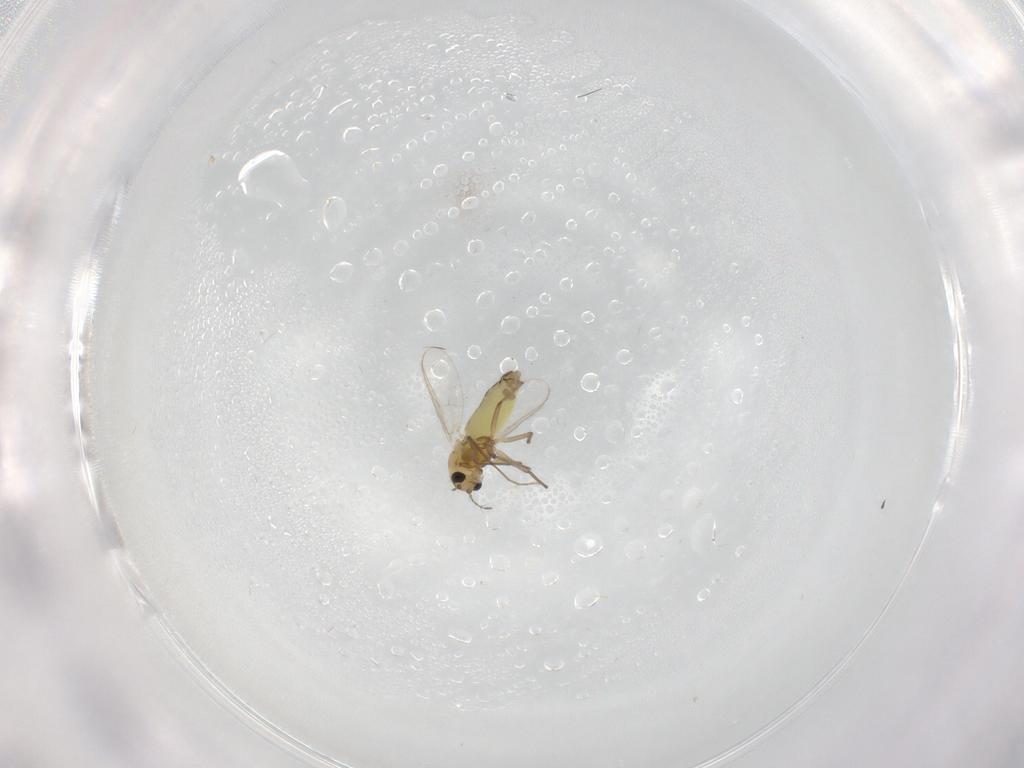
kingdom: Animalia
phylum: Arthropoda
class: Insecta
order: Diptera
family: Chironomidae
